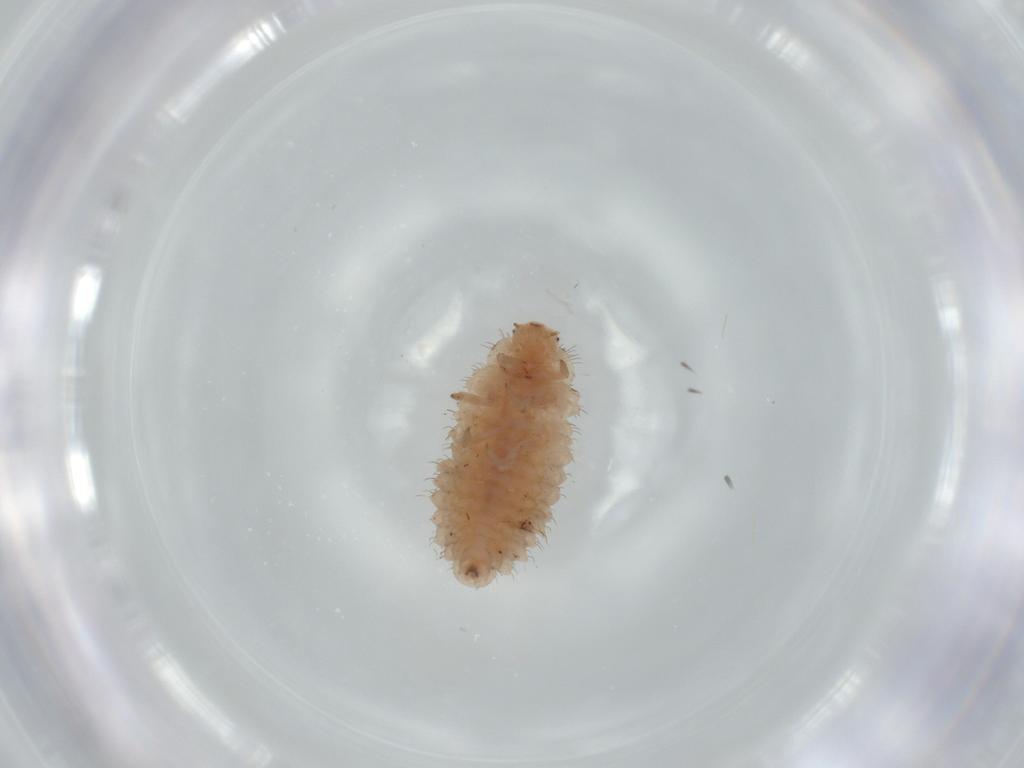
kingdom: Animalia
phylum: Arthropoda
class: Insecta
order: Coleoptera
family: Coccinellidae
